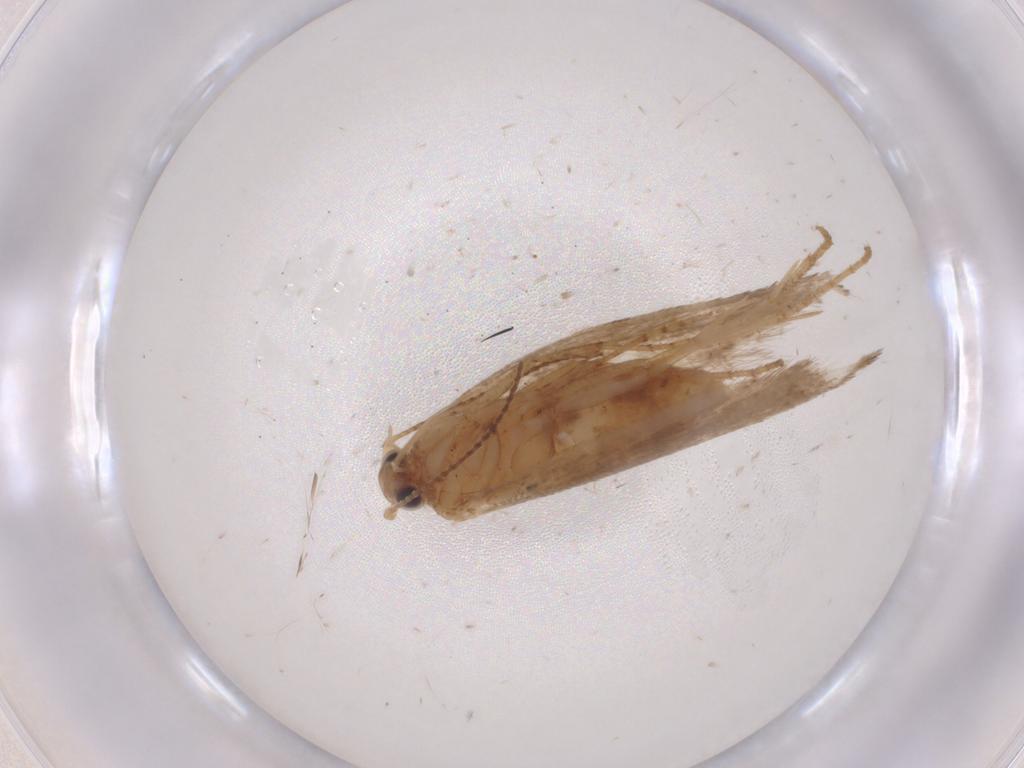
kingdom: Animalia
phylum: Arthropoda
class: Insecta
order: Lepidoptera
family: Argyresthiidae
